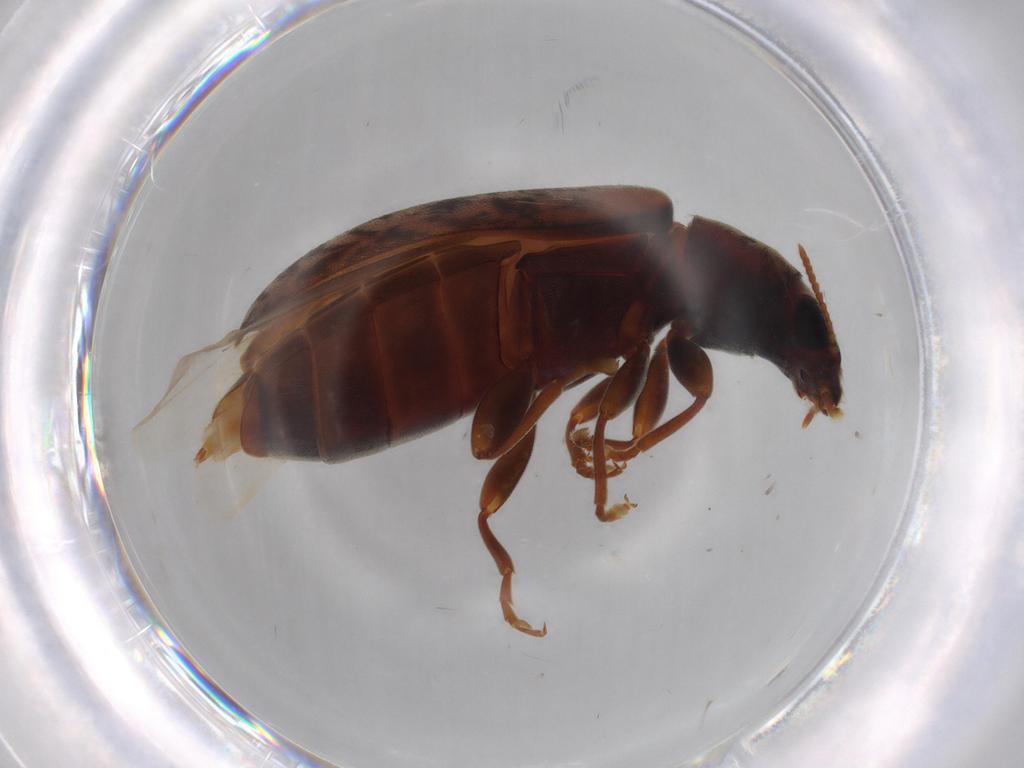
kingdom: Animalia
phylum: Arthropoda
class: Insecta
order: Coleoptera
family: Mycteridae
